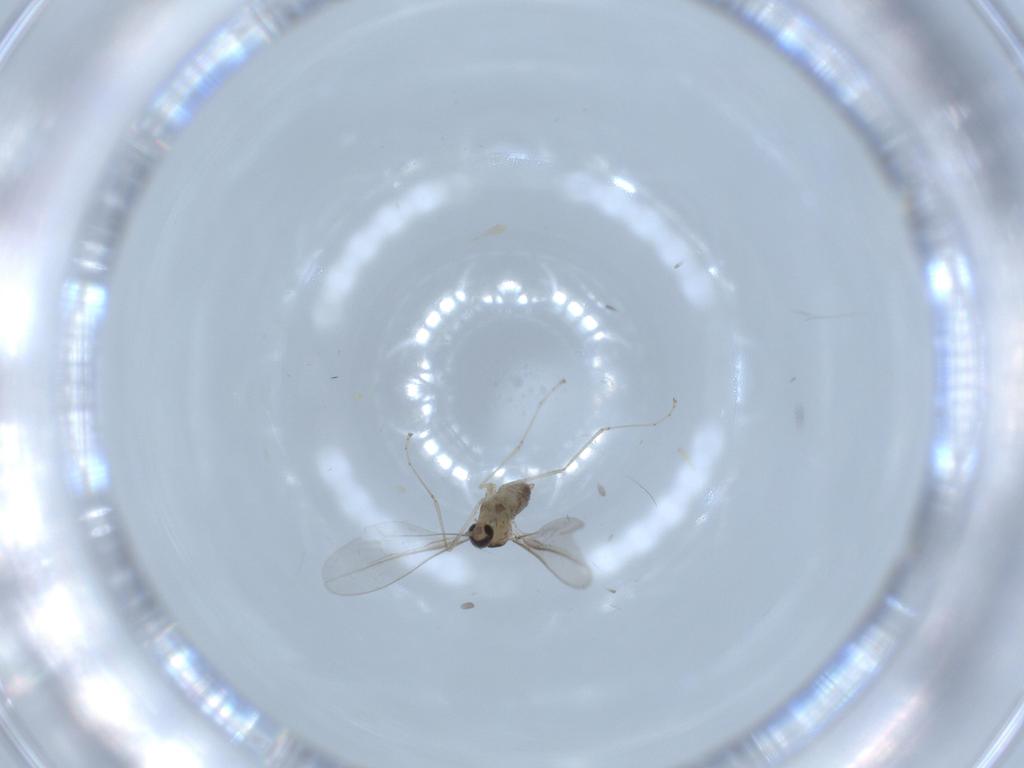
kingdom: Animalia
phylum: Arthropoda
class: Insecta
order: Diptera
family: Cecidomyiidae
